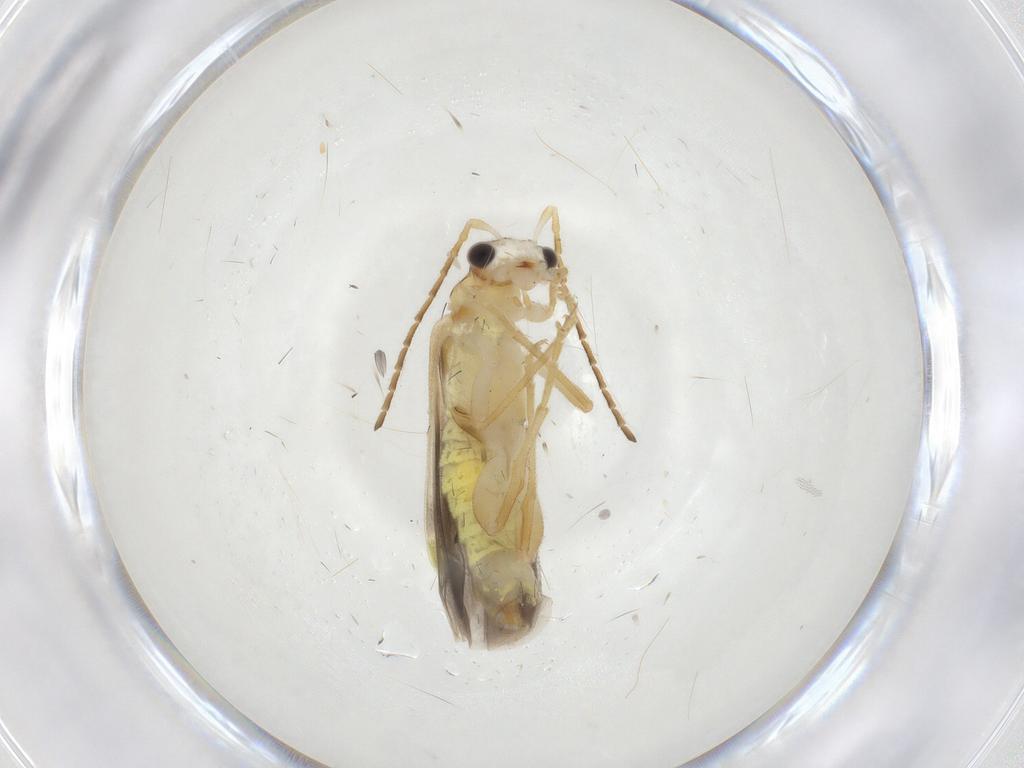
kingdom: Animalia
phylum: Arthropoda
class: Insecta
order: Coleoptera
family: Cantharidae
